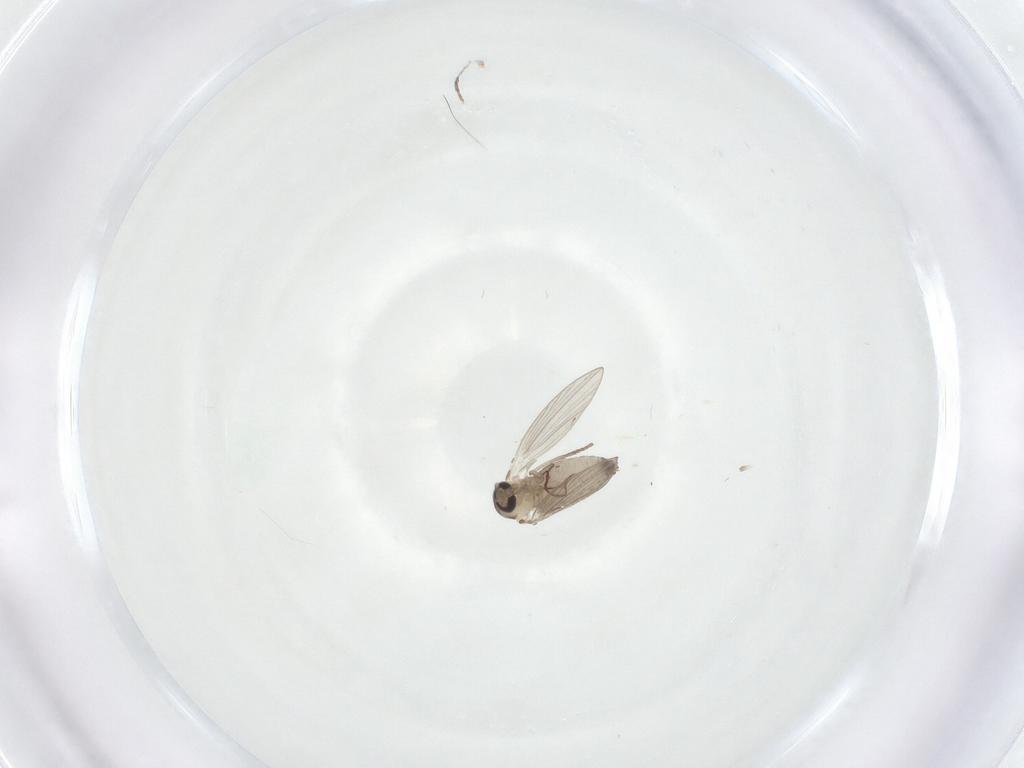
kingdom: Animalia
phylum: Arthropoda
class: Insecta
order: Diptera
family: Psychodidae
